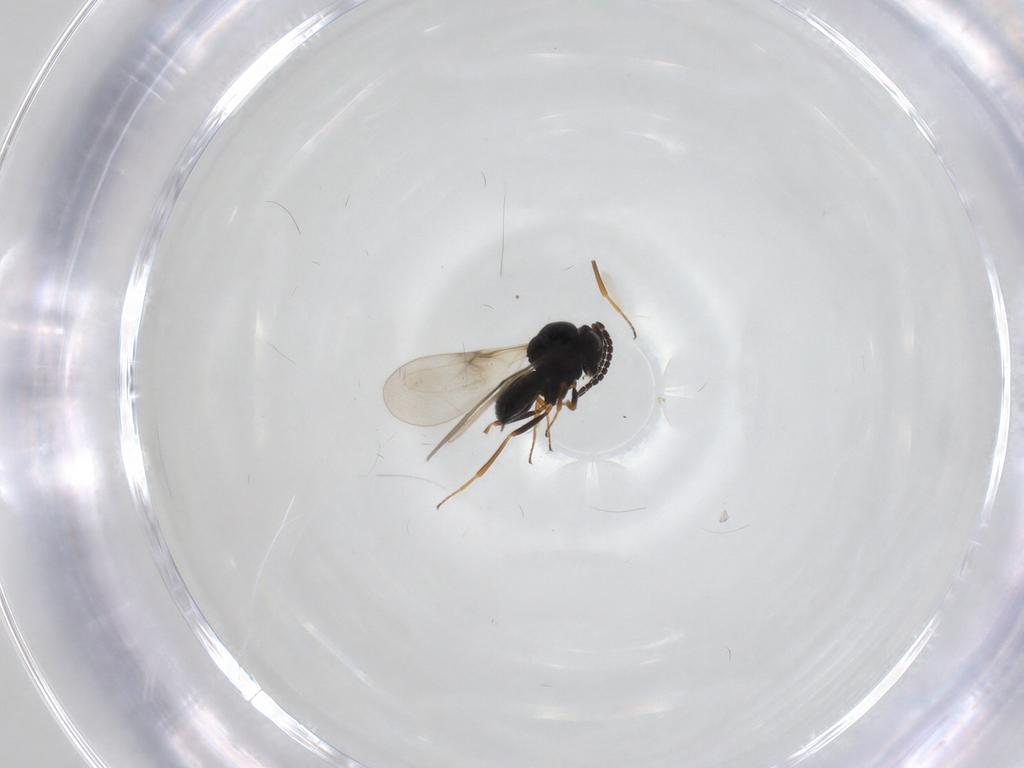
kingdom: Animalia
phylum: Arthropoda
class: Insecta
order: Hymenoptera
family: Scelionidae
